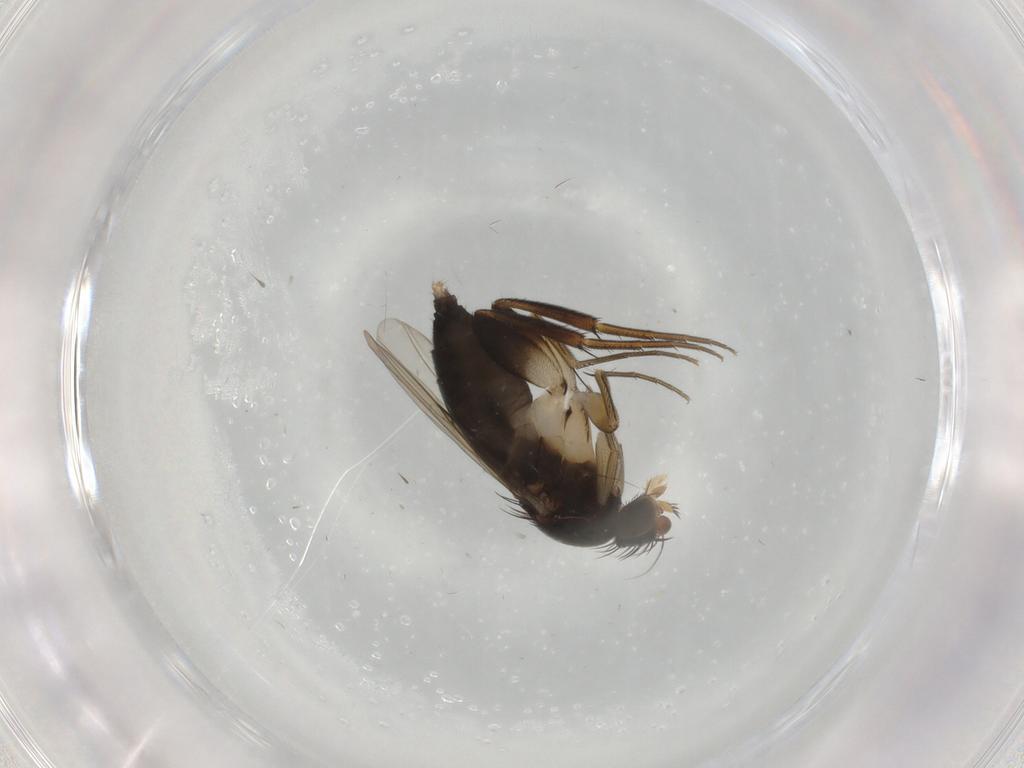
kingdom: Animalia
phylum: Arthropoda
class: Insecta
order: Diptera
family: Phoridae
